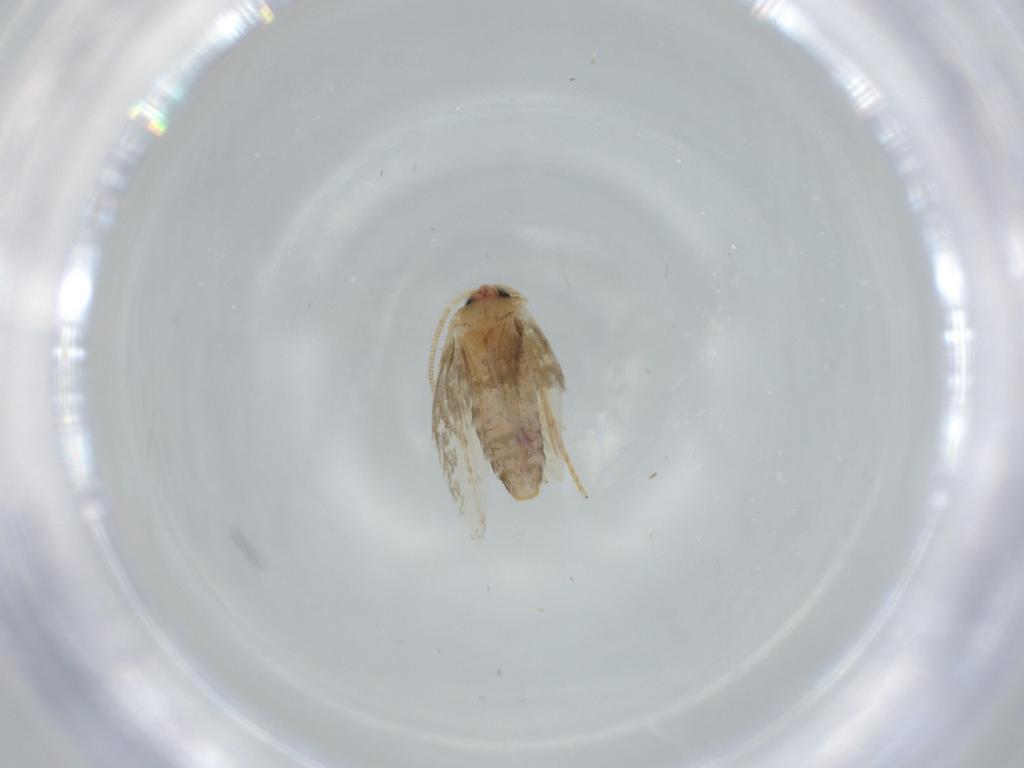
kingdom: Animalia
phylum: Arthropoda
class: Insecta
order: Lepidoptera
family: Nepticulidae
